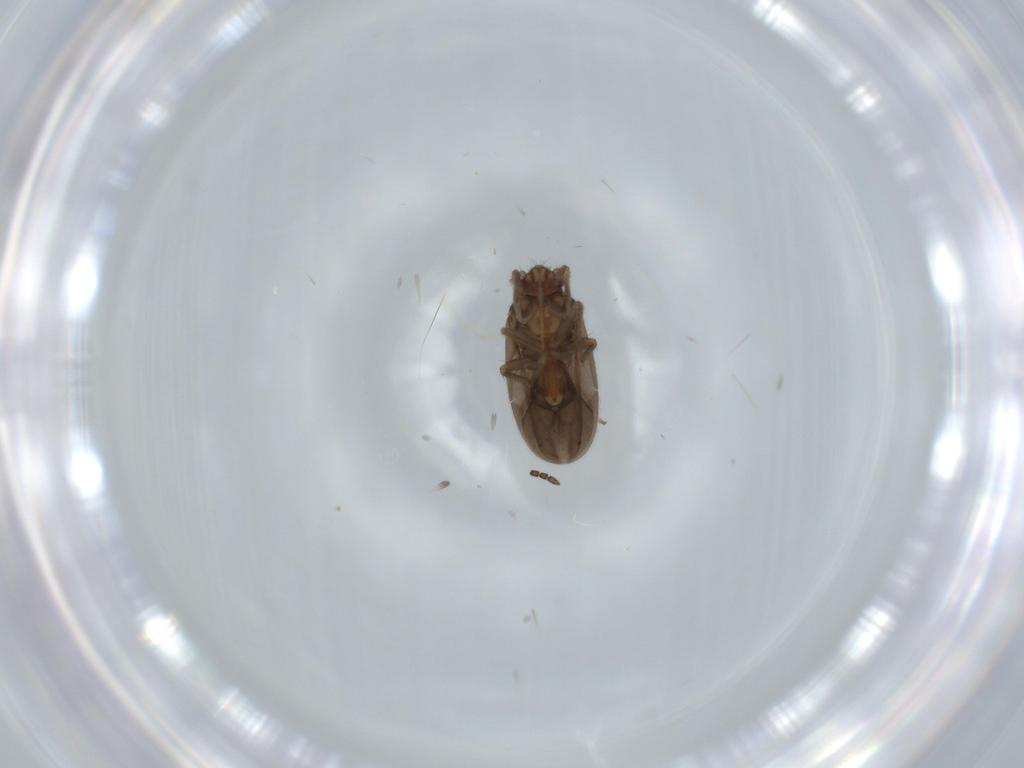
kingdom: Animalia
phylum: Arthropoda
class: Insecta
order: Hemiptera
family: Ceratocombidae
